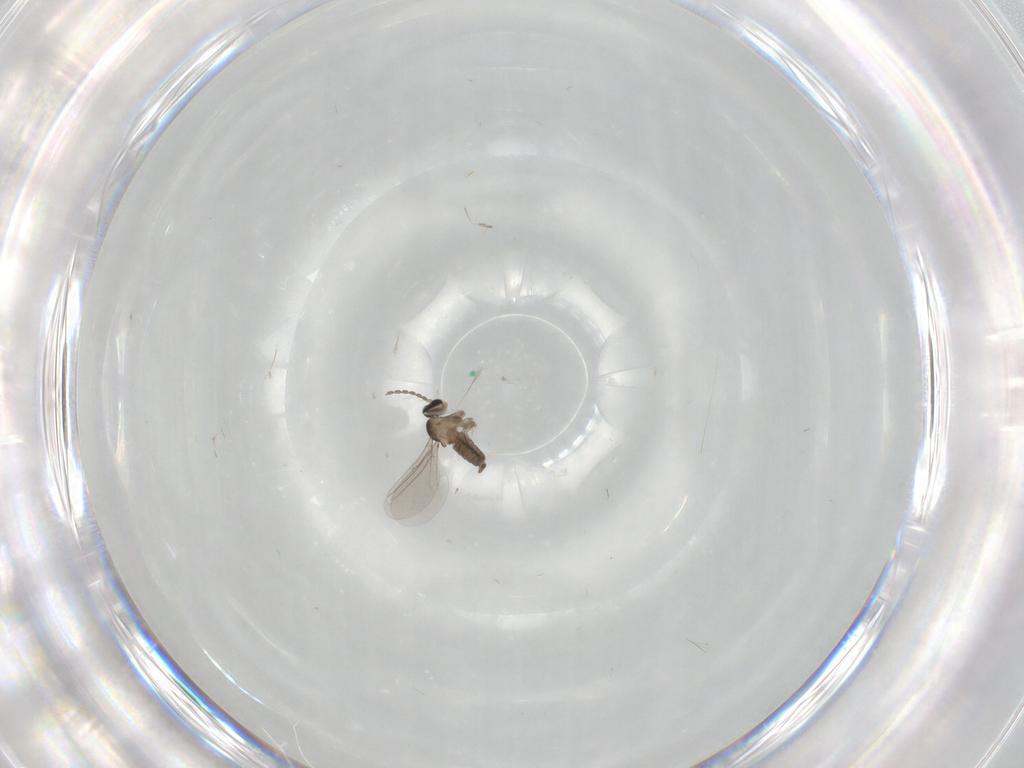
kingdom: Animalia
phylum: Arthropoda
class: Insecta
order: Diptera
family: Cecidomyiidae
